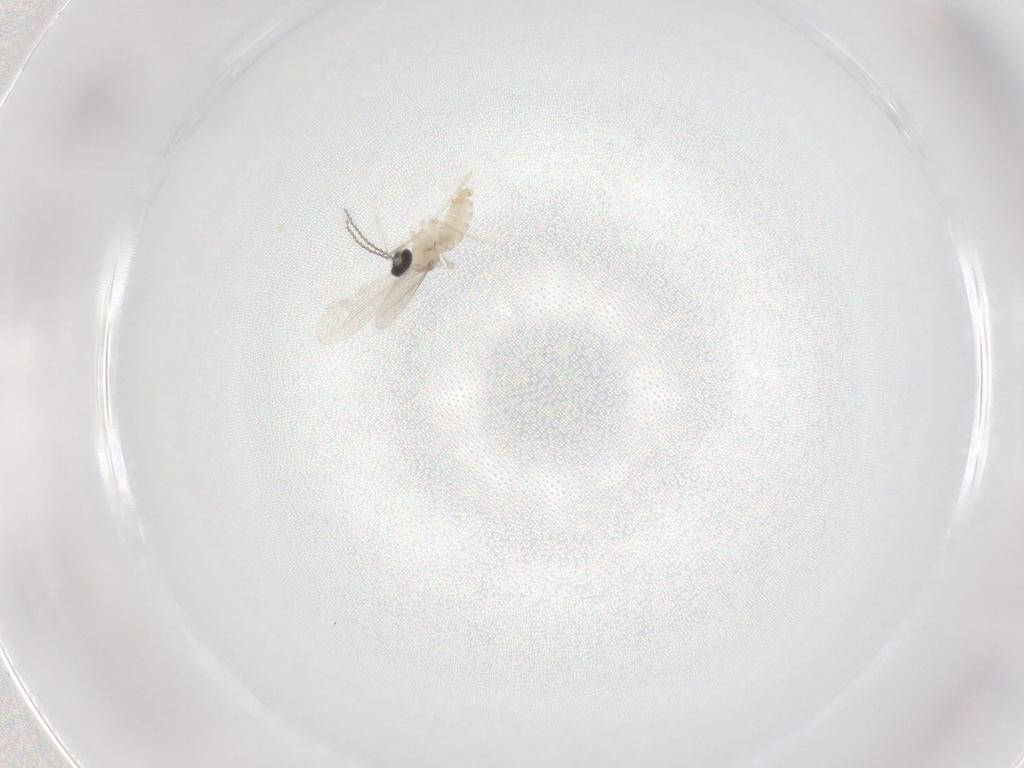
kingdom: Animalia
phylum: Arthropoda
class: Insecta
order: Diptera
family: Cecidomyiidae
